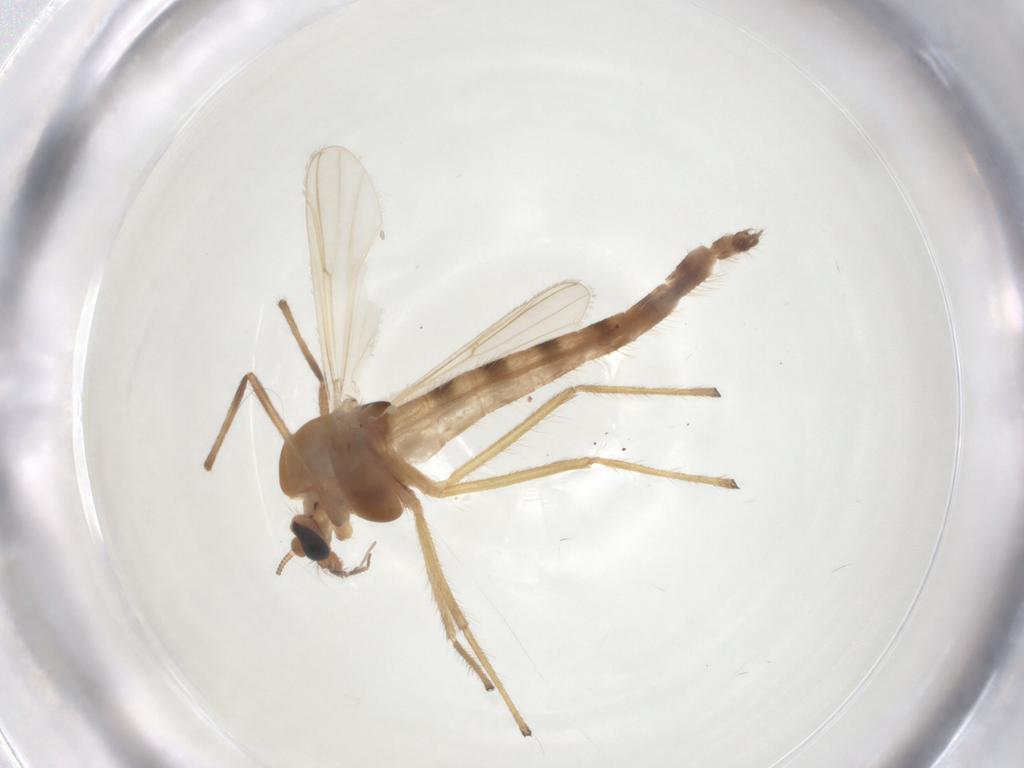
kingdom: Animalia
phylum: Arthropoda
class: Insecta
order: Diptera
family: Chironomidae
